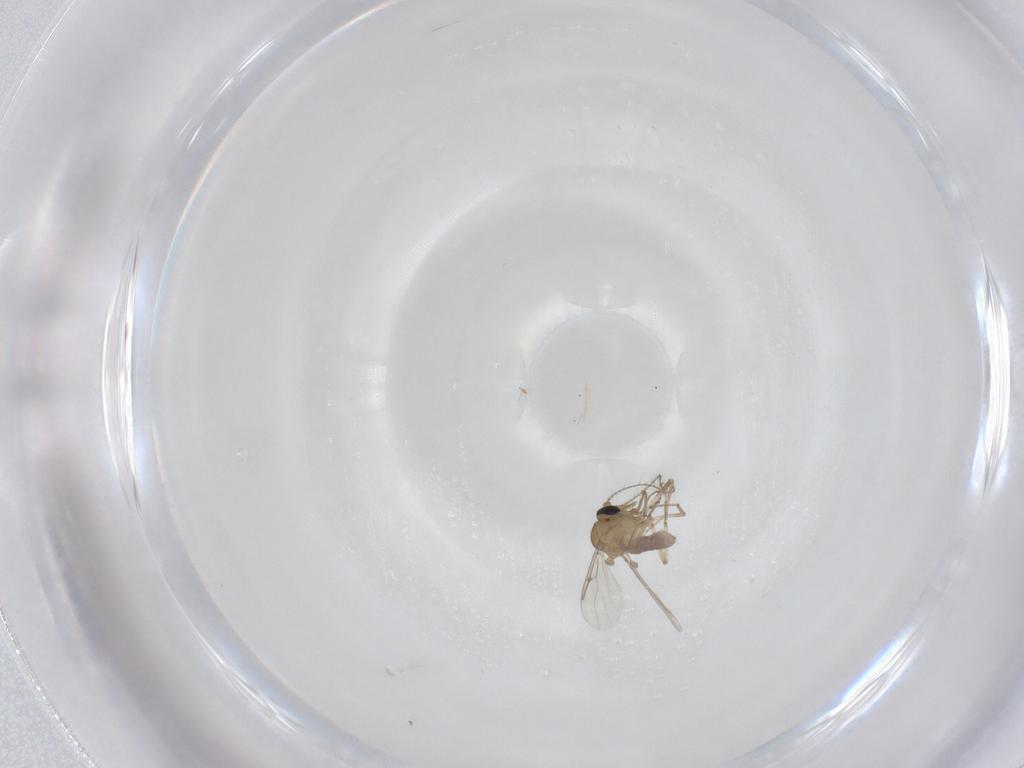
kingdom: Animalia
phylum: Arthropoda
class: Insecta
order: Diptera
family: Ceratopogonidae
